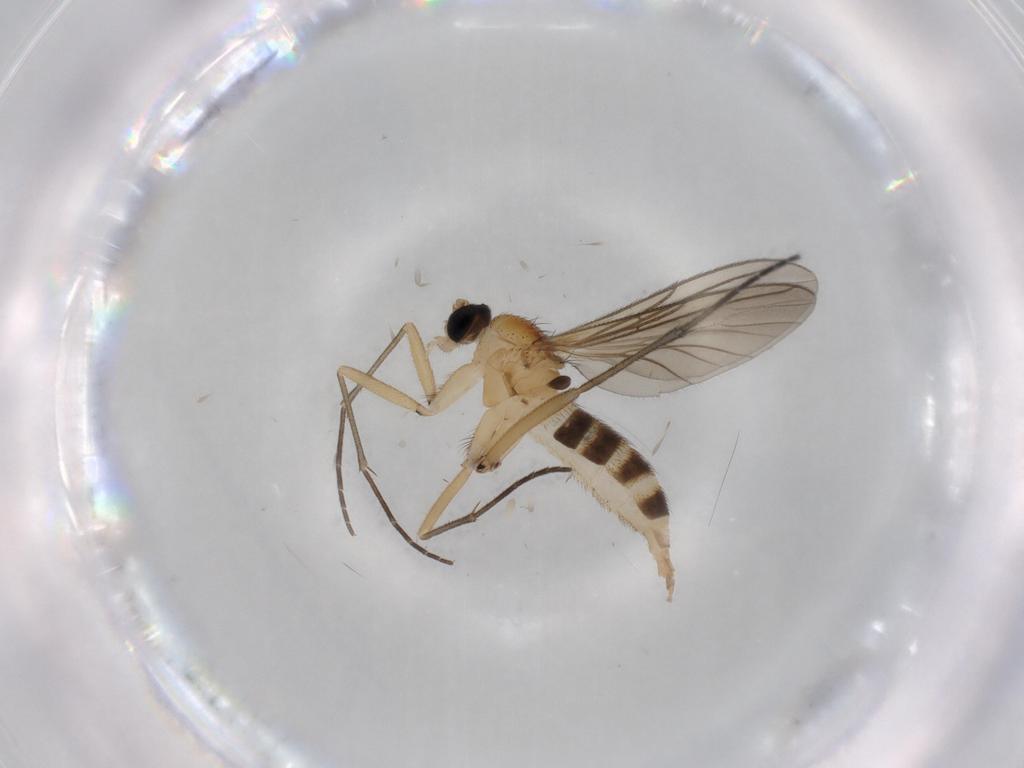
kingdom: Animalia
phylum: Arthropoda
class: Insecta
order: Diptera
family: Sciaridae
